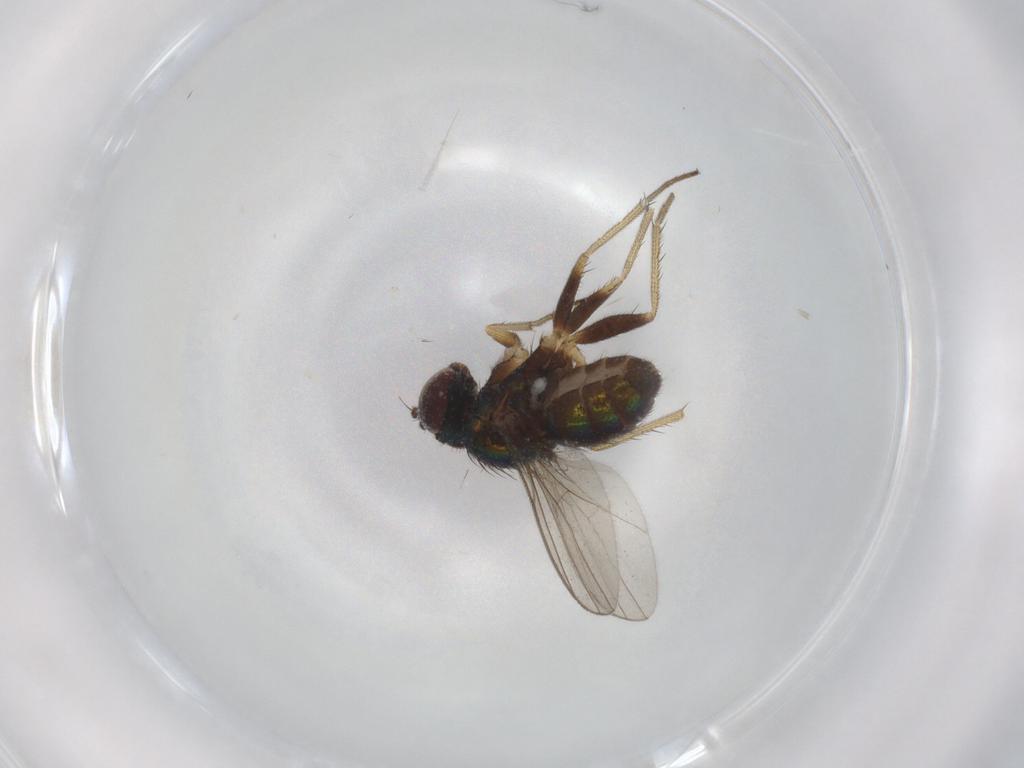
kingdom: Animalia
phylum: Arthropoda
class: Insecta
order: Diptera
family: Dolichopodidae
